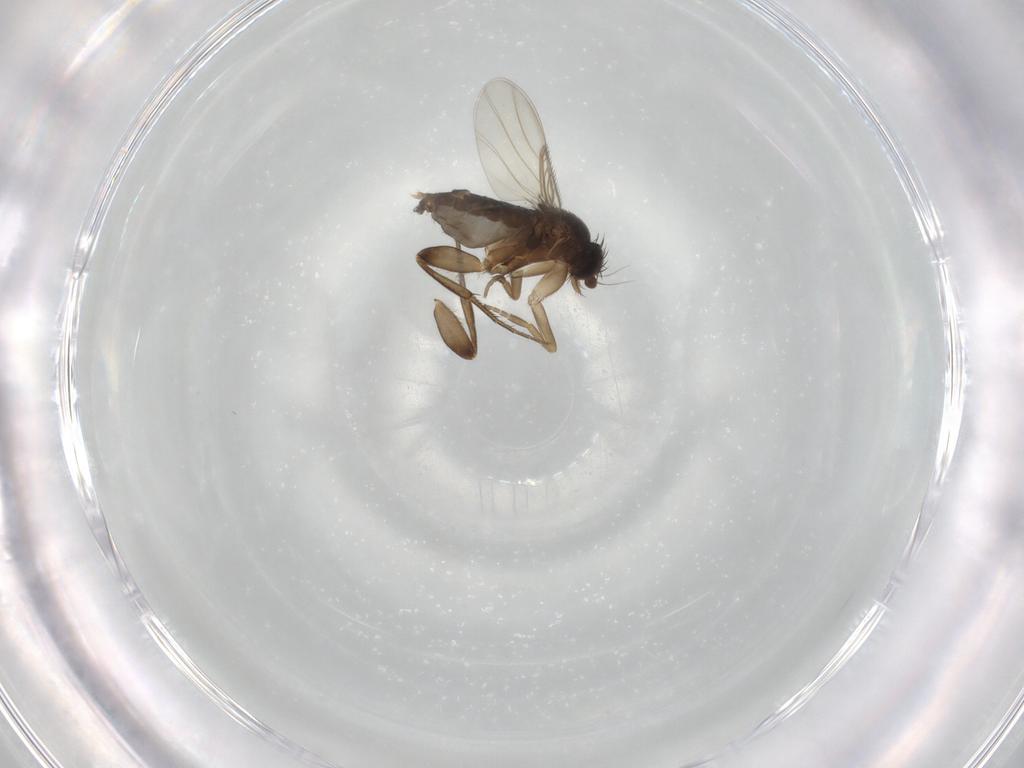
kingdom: Animalia
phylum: Arthropoda
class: Insecta
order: Diptera
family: Phoridae
